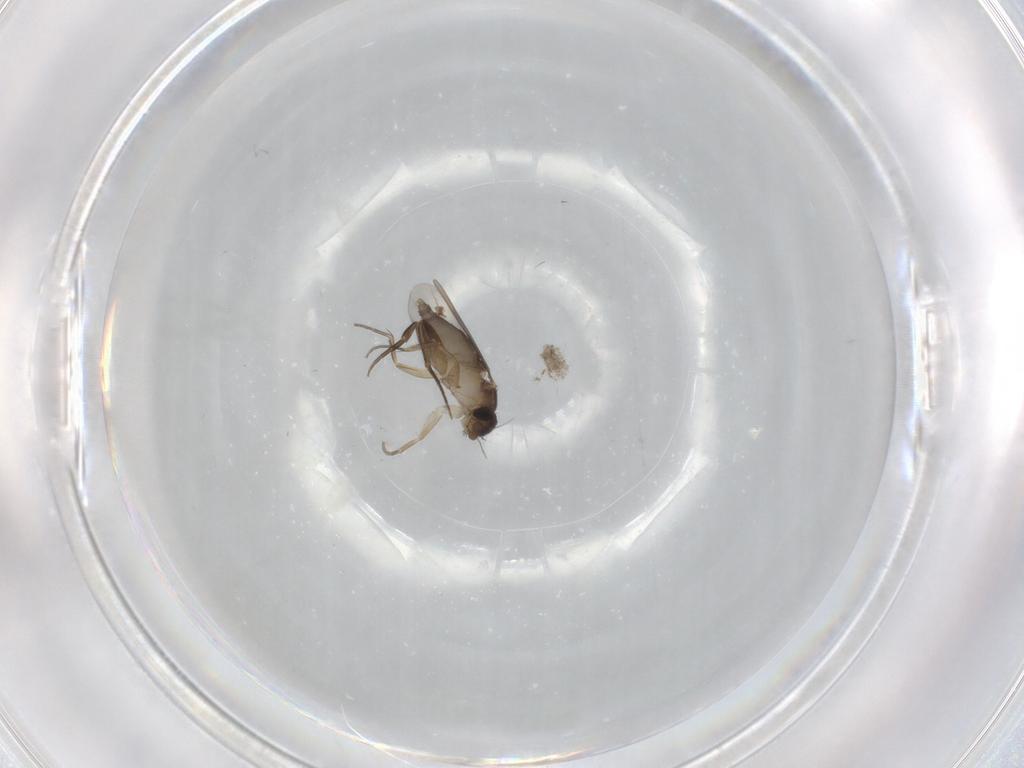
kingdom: Animalia
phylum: Arthropoda
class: Insecta
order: Diptera
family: Phoridae
